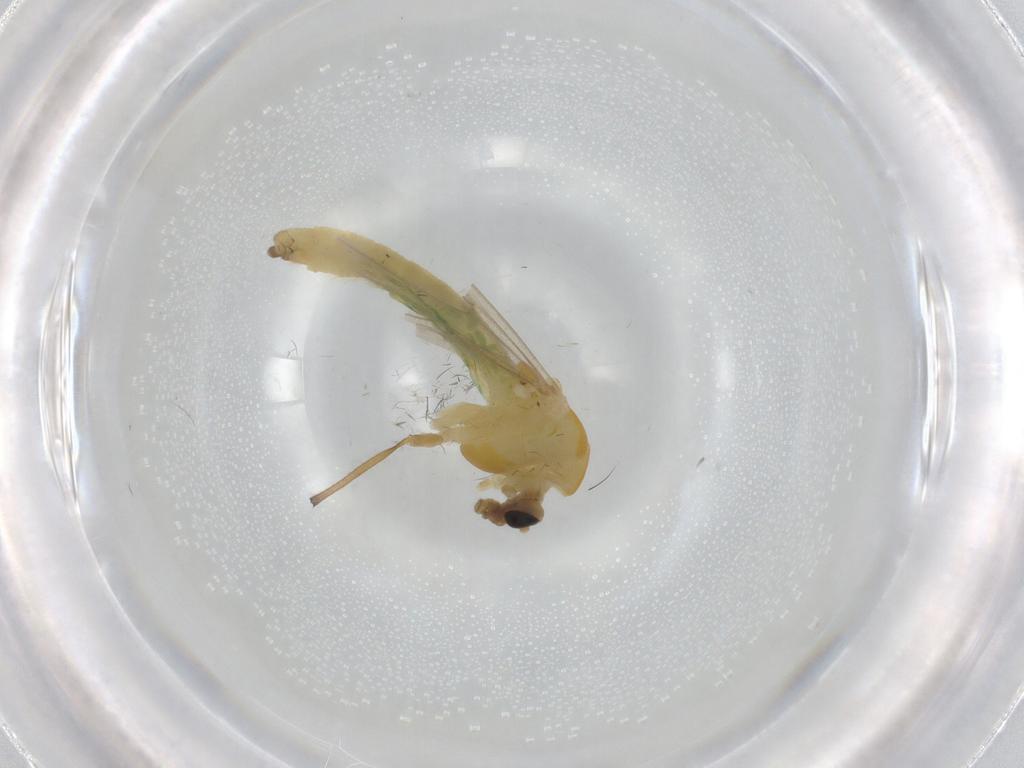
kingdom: Animalia
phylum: Arthropoda
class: Insecta
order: Diptera
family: Chironomidae
